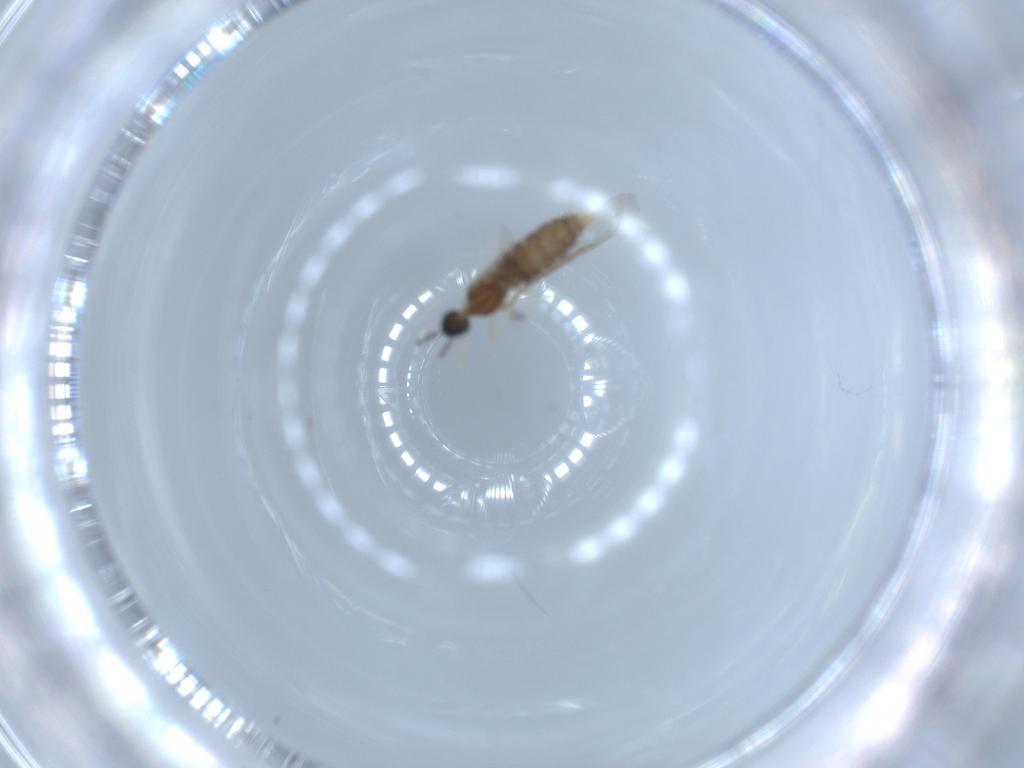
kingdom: Animalia
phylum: Arthropoda
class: Insecta
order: Diptera
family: Cecidomyiidae
